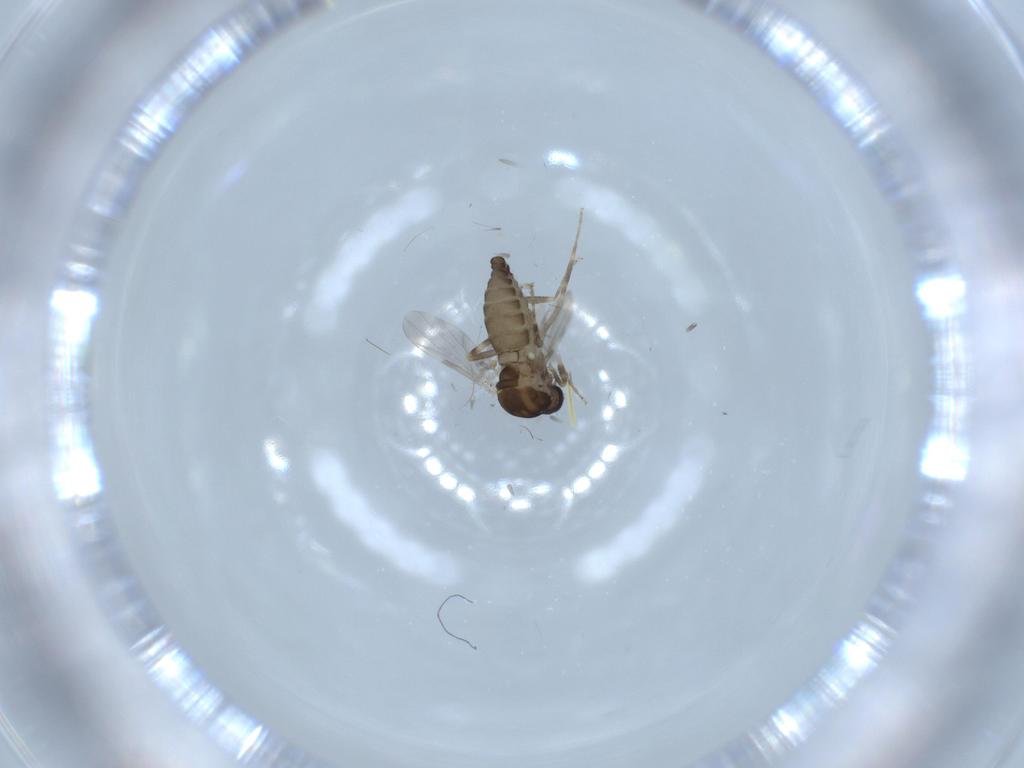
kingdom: Animalia
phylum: Arthropoda
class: Insecta
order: Diptera
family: Ceratopogonidae
